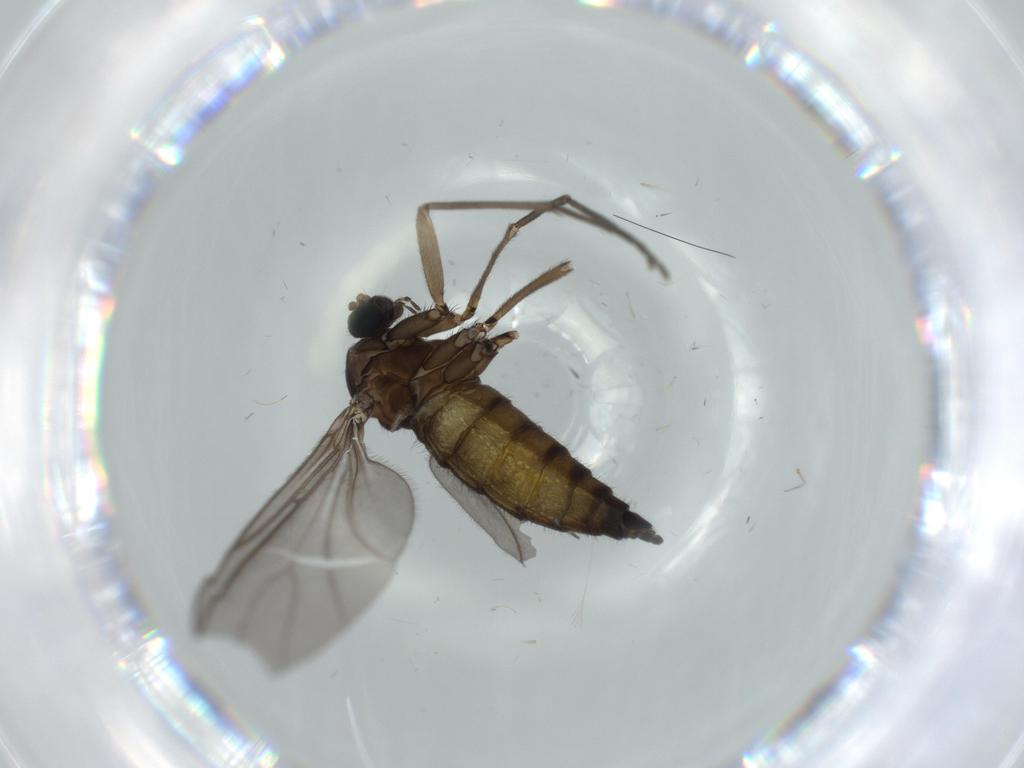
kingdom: Animalia
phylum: Arthropoda
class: Insecta
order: Diptera
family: Sciaridae
